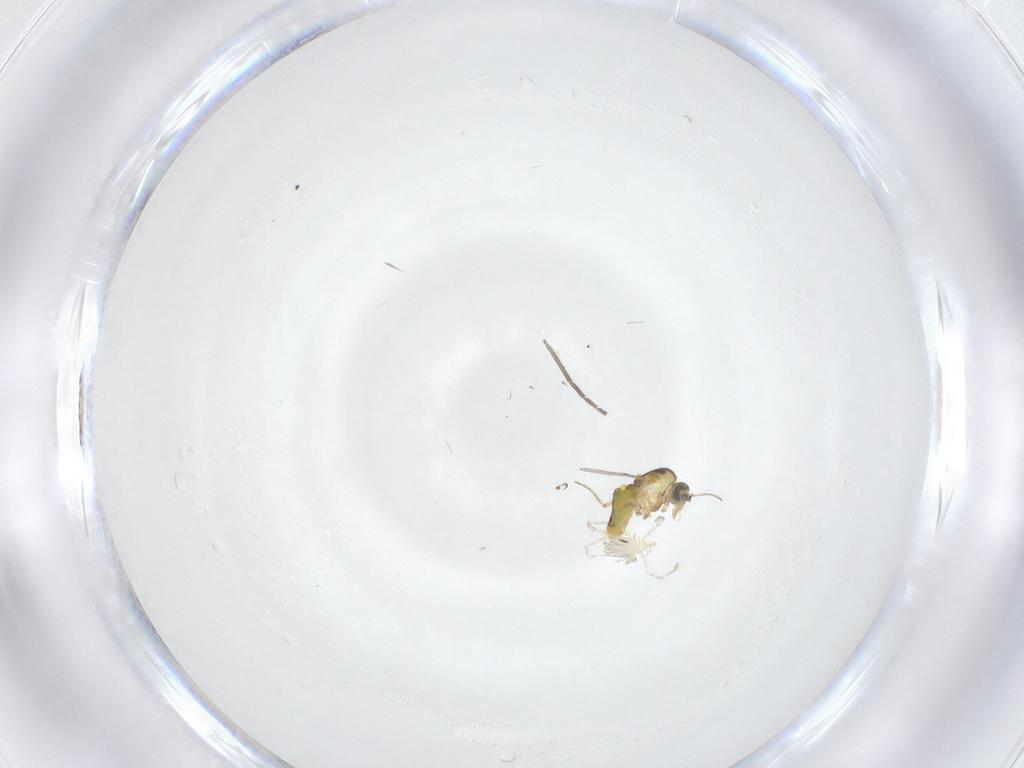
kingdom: Animalia
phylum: Arthropoda
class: Insecta
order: Diptera
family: Ceratopogonidae
